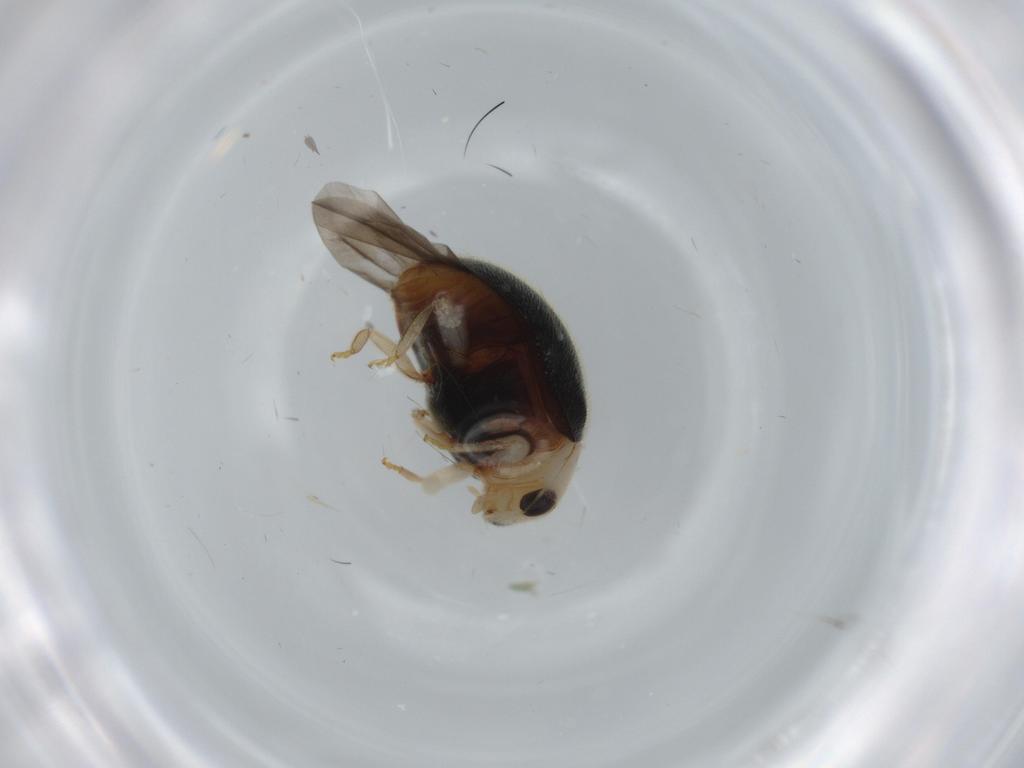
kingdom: Animalia
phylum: Arthropoda
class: Insecta
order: Coleoptera
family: Coccinellidae
